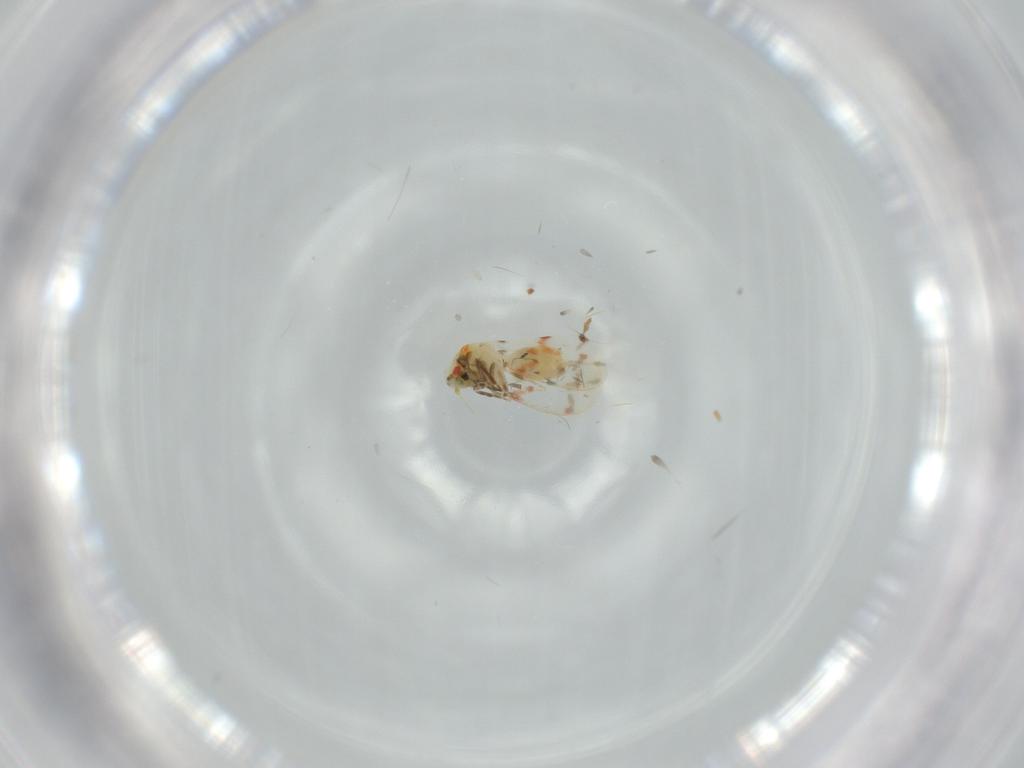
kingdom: Animalia
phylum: Arthropoda
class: Insecta
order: Hemiptera
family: Aleyrodidae
